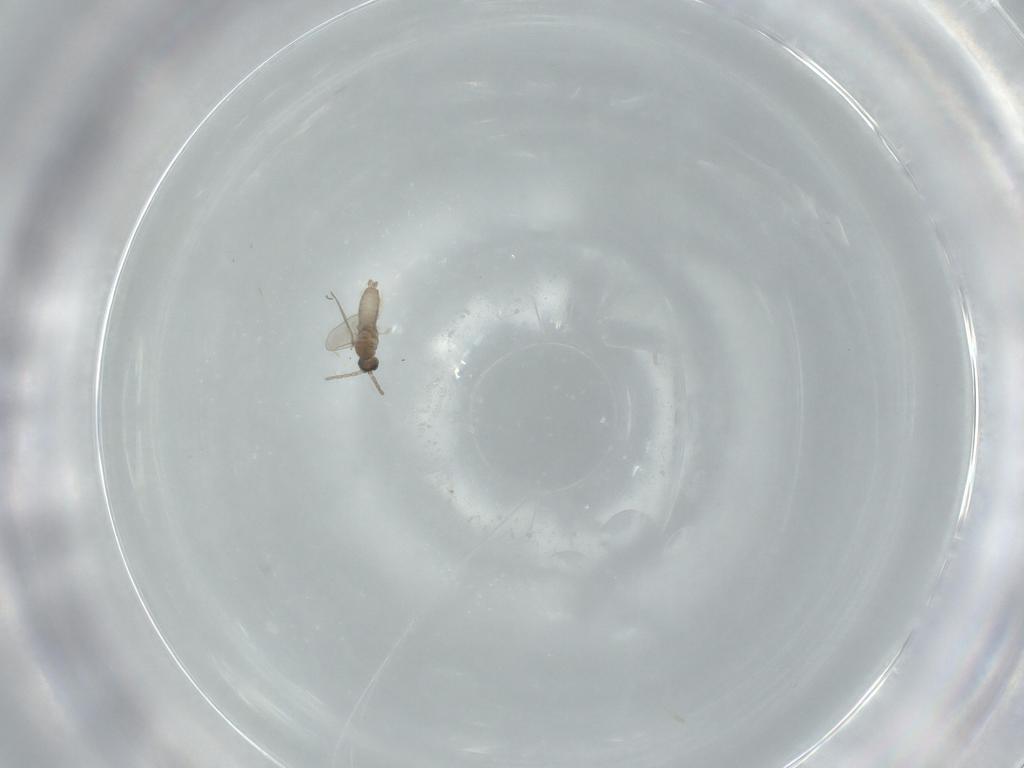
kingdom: Animalia
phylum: Arthropoda
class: Insecta
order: Diptera
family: Cecidomyiidae
